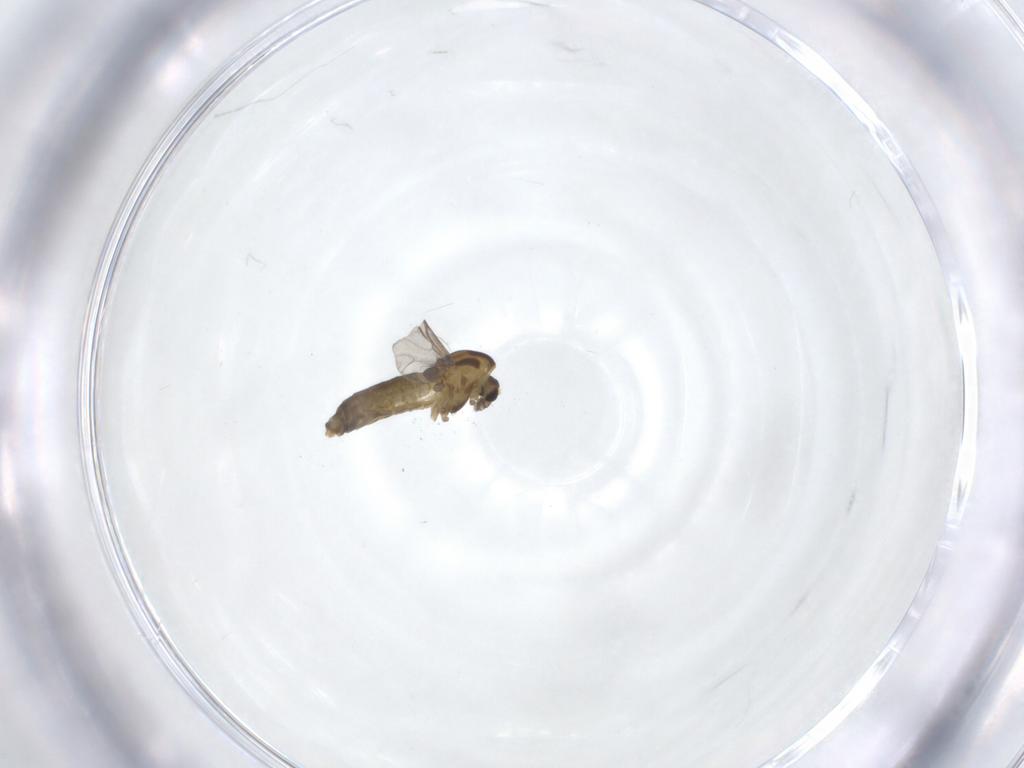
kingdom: Animalia
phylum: Arthropoda
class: Insecta
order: Diptera
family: Chironomidae
